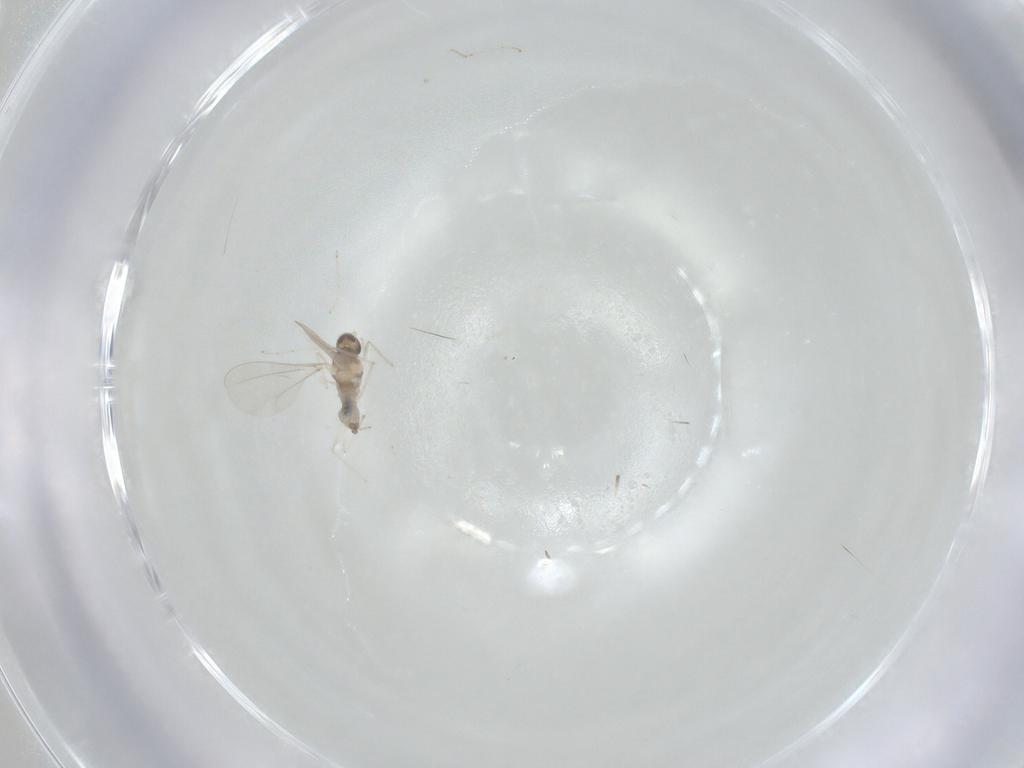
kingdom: Animalia
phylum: Arthropoda
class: Insecta
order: Diptera
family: Cecidomyiidae
